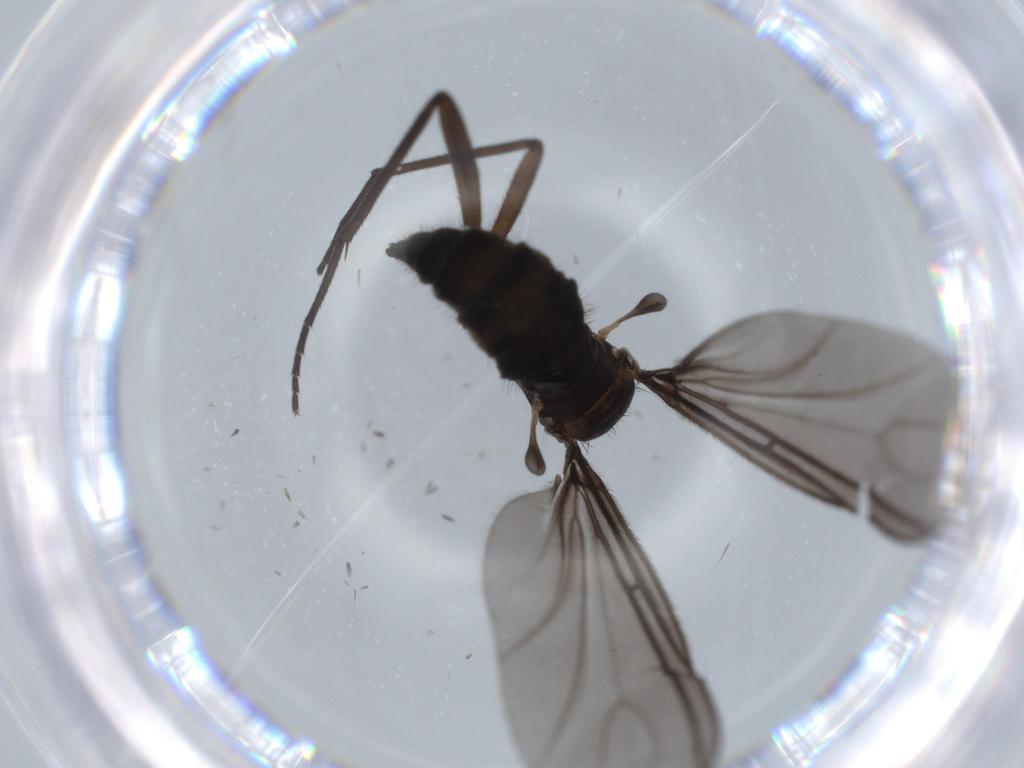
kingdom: Animalia
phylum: Arthropoda
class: Insecta
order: Diptera
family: Sciaridae
